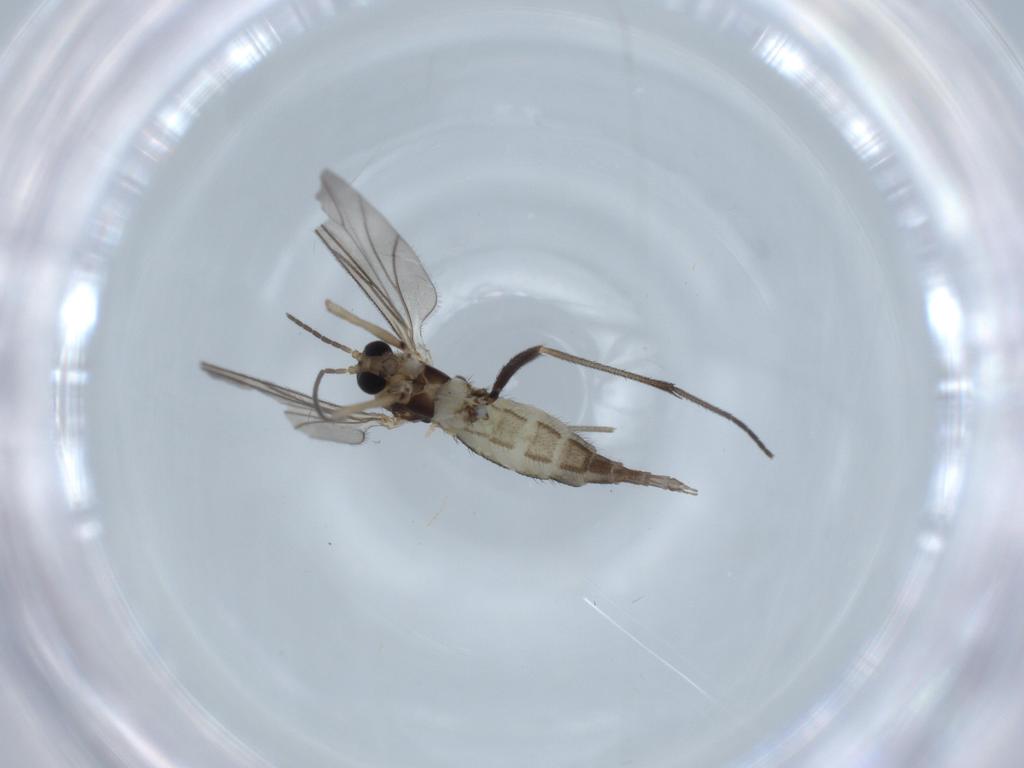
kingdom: Animalia
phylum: Arthropoda
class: Insecta
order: Diptera
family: Sciaridae
